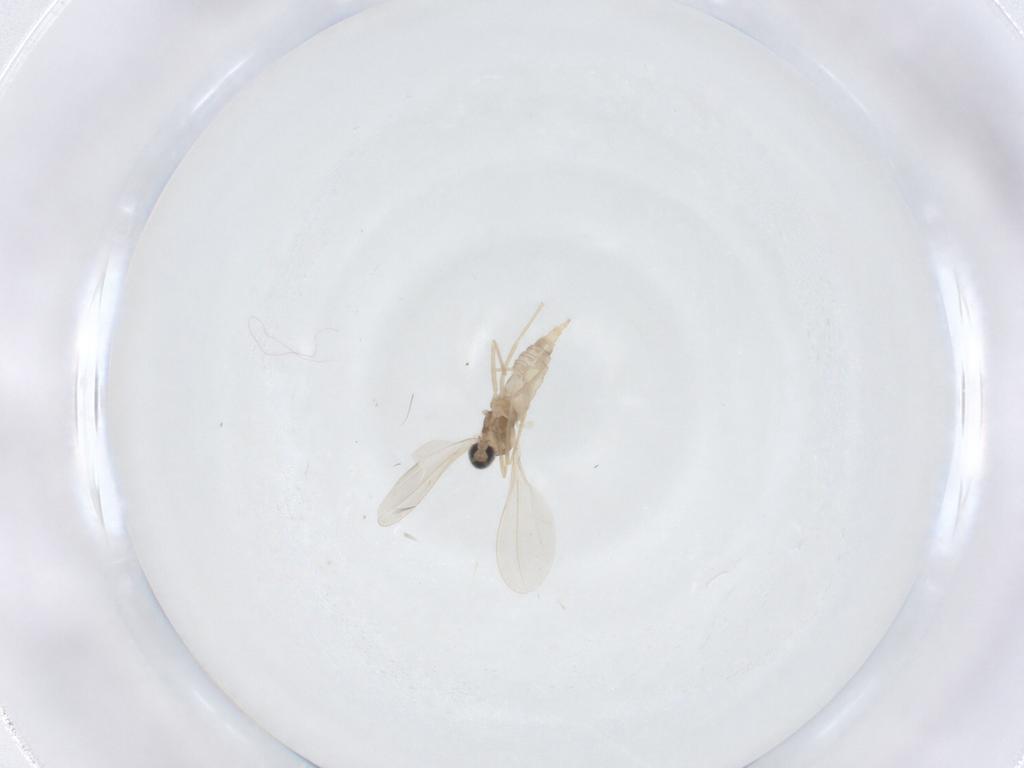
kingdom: Animalia
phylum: Arthropoda
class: Insecta
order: Diptera
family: Cecidomyiidae
